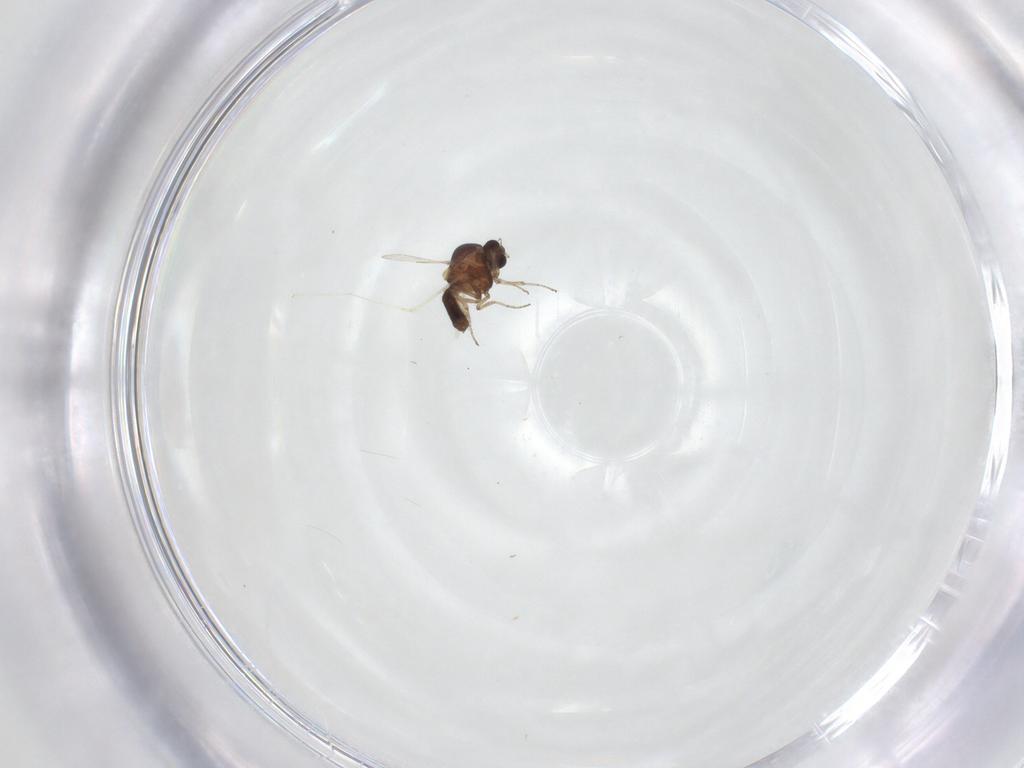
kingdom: Animalia
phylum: Arthropoda
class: Insecta
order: Diptera
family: Cecidomyiidae
